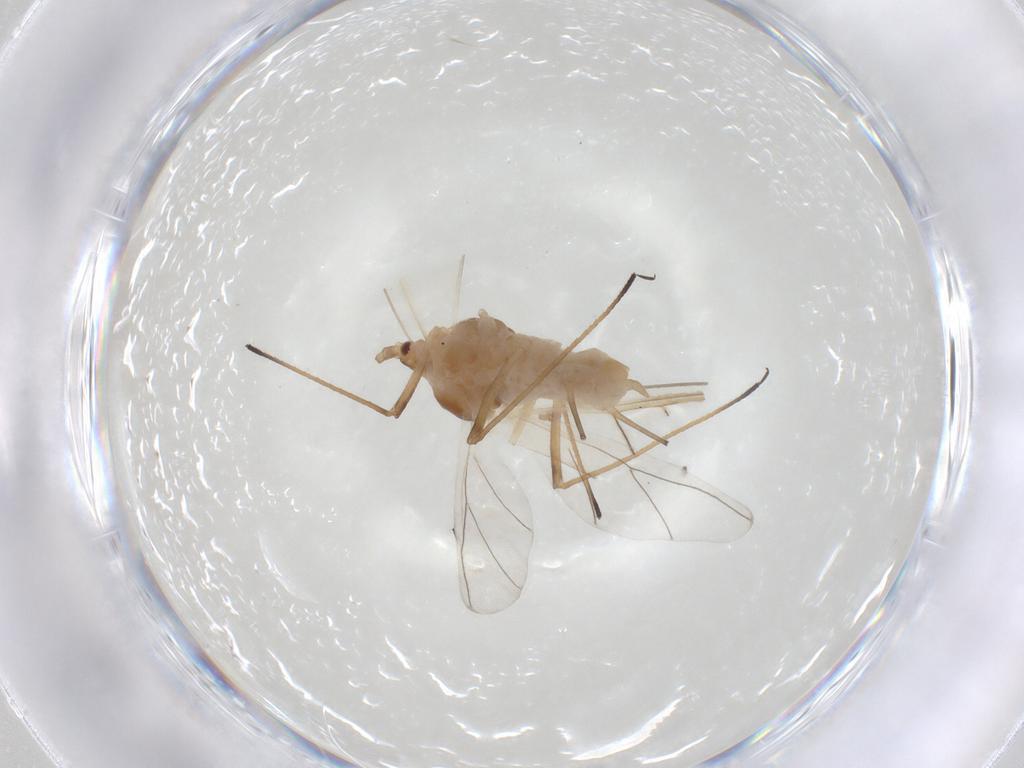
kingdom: Animalia
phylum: Arthropoda
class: Insecta
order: Hemiptera
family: Aphididae
